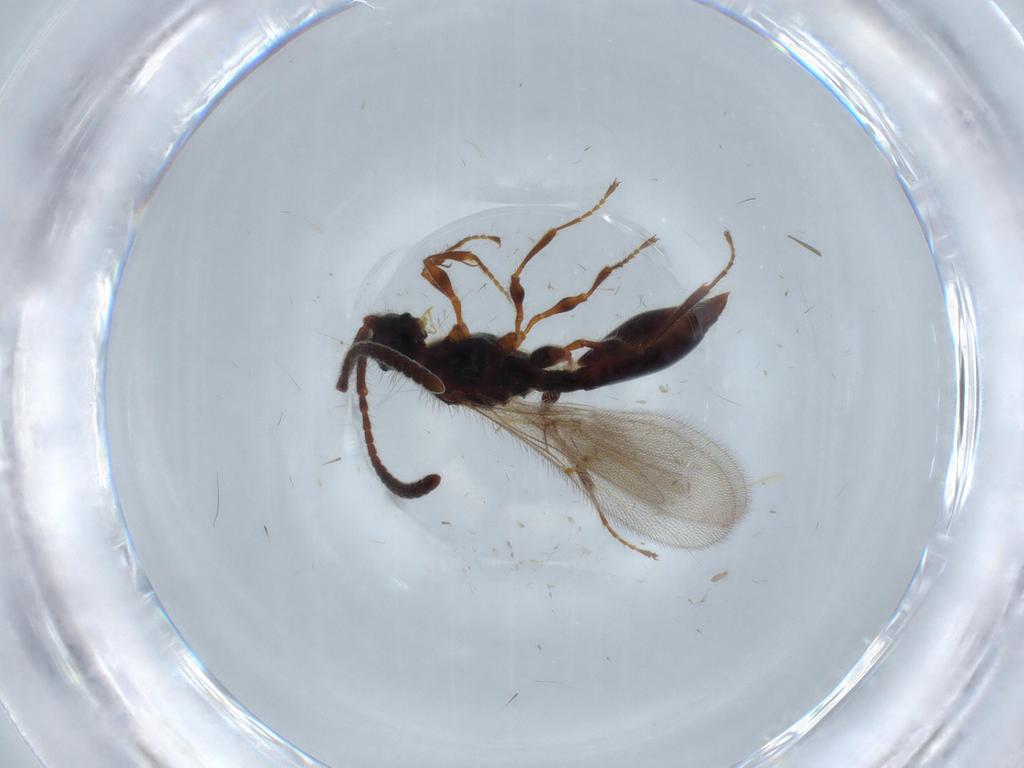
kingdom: Animalia
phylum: Arthropoda
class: Insecta
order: Hymenoptera
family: Diapriidae
